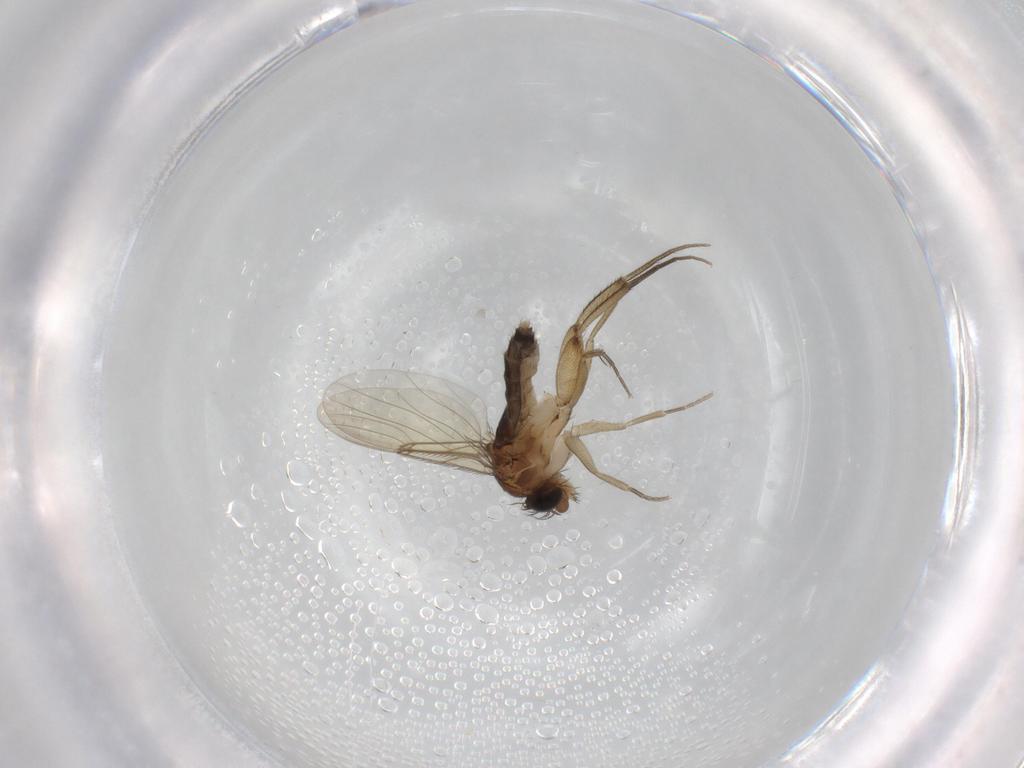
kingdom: Animalia
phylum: Arthropoda
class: Insecta
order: Diptera
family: Phoridae
